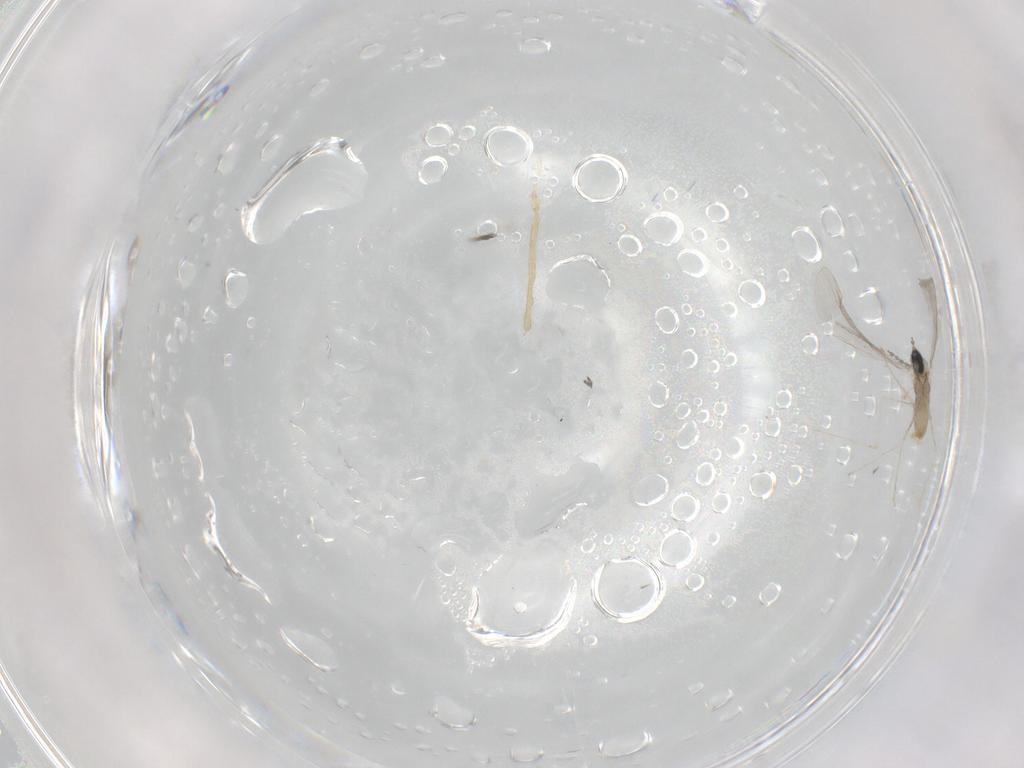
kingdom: Animalia
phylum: Arthropoda
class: Insecta
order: Diptera
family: Cecidomyiidae
